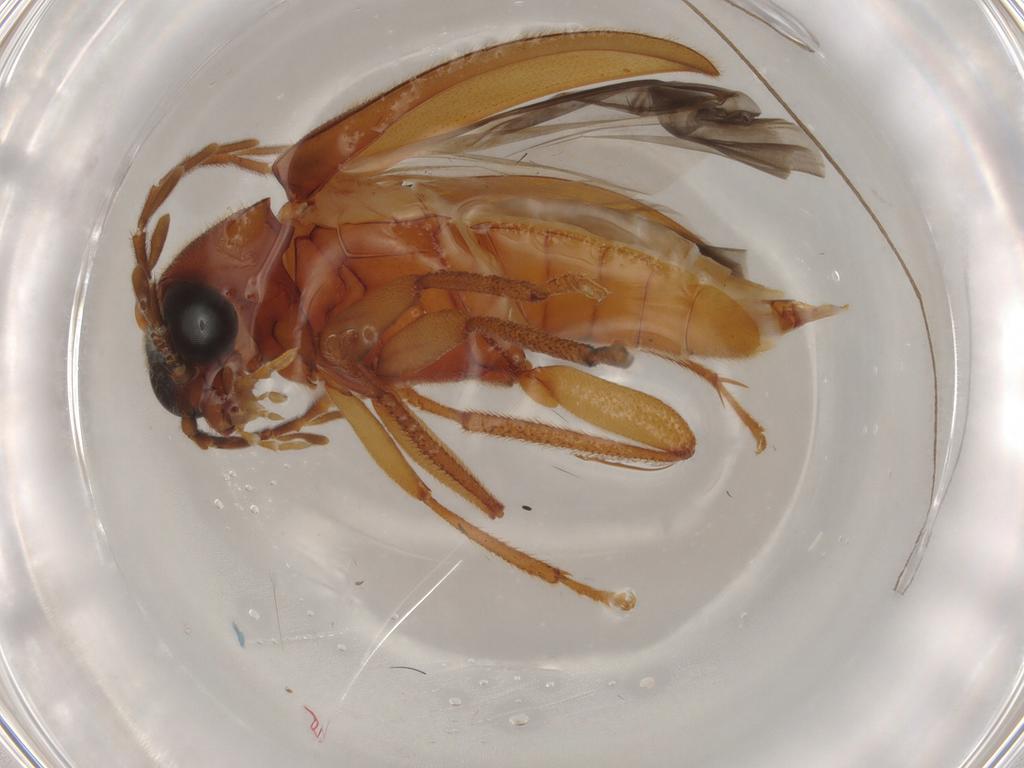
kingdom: Animalia
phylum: Arthropoda
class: Insecta
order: Coleoptera
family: Ptilodactylidae
